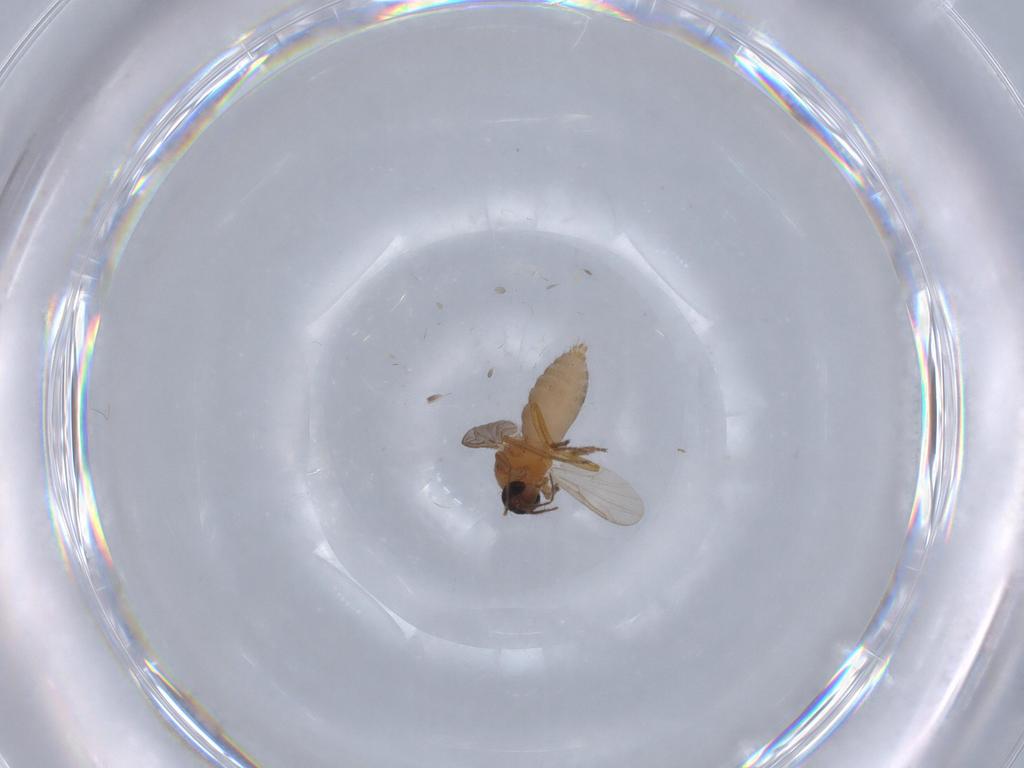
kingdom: Animalia
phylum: Arthropoda
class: Insecta
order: Diptera
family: Ceratopogonidae
